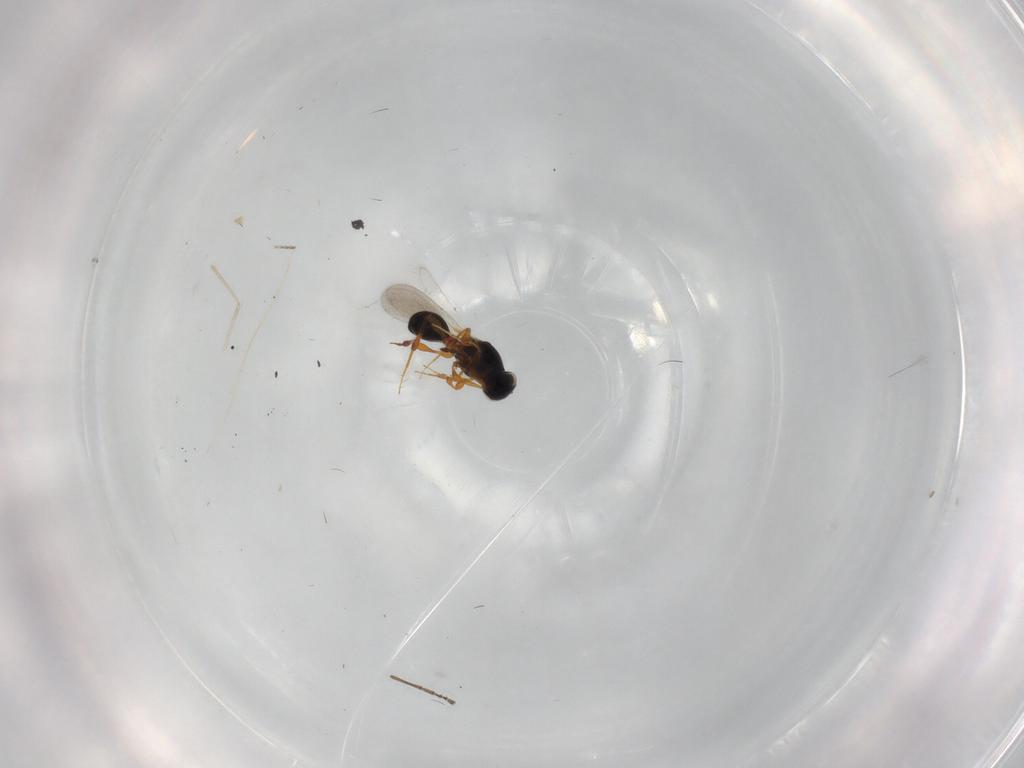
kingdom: Animalia
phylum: Arthropoda
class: Insecta
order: Hymenoptera
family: Platygastridae
